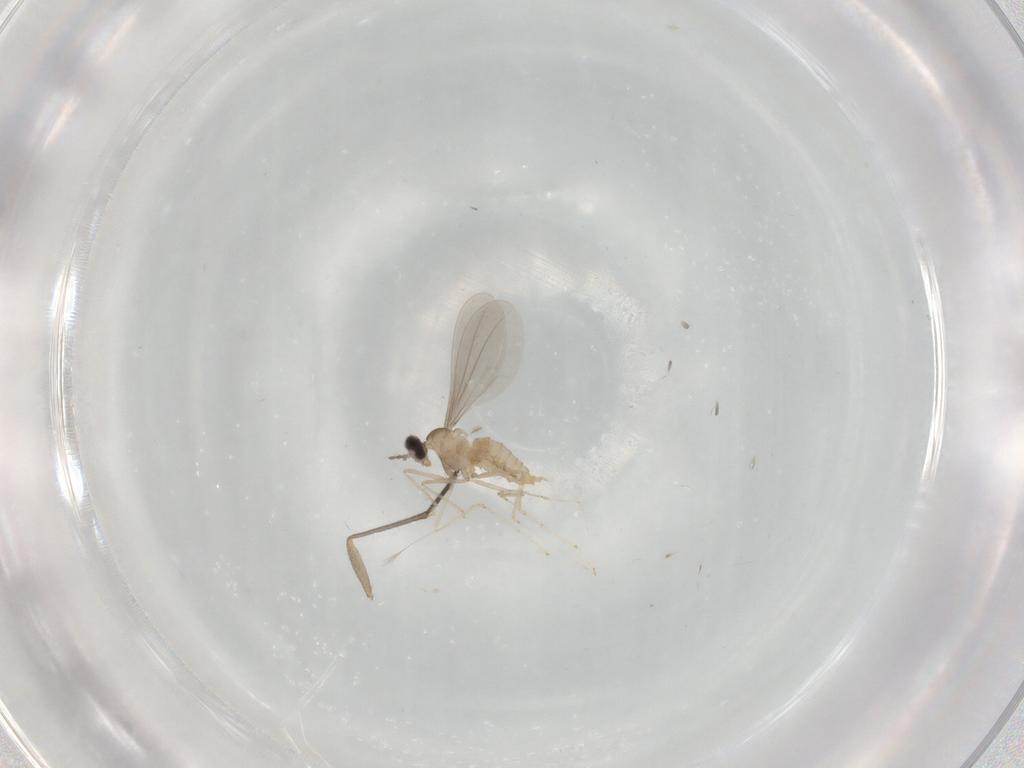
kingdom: Animalia
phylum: Arthropoda
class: Insecta
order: Diptera
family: Cecidomyiidae
